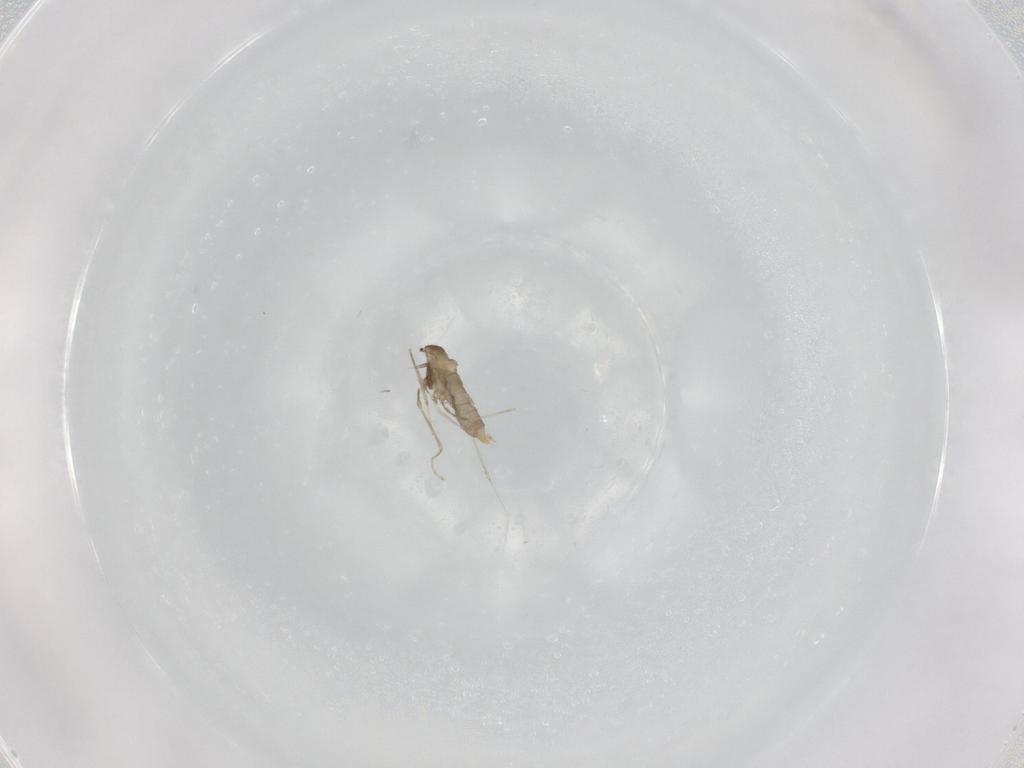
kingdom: Animalia
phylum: Arthropoda
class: Insecta
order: Diptera
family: Cecidomyiidae
